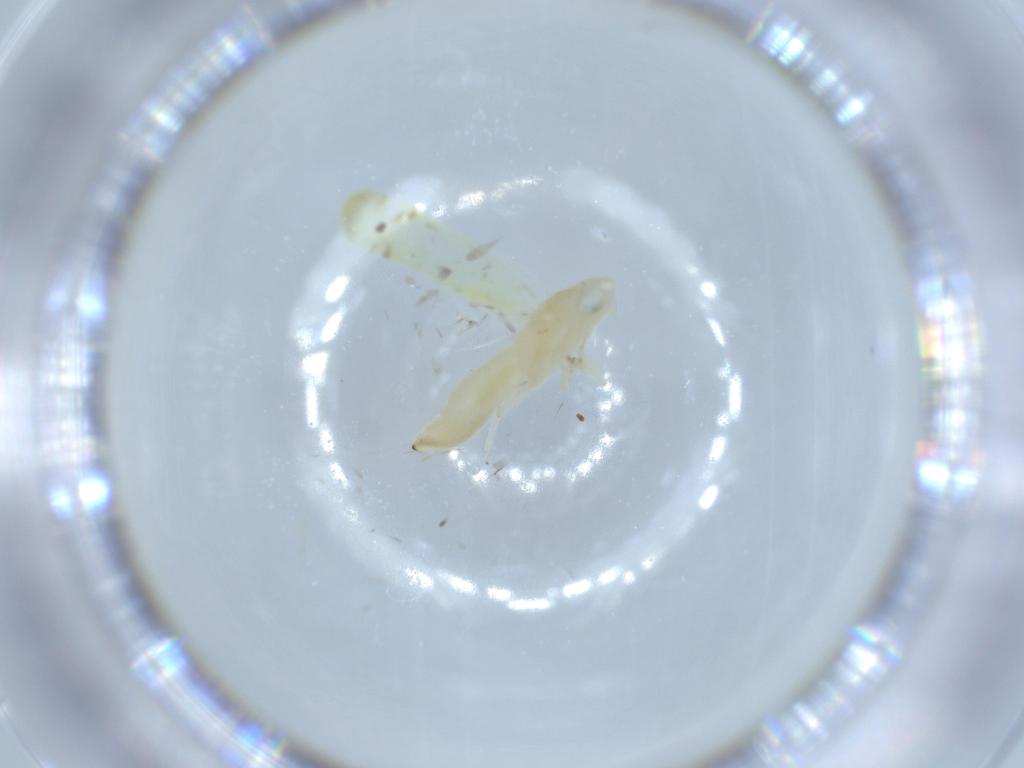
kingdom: Animalia
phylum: Arthropoda
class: Insecta
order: Hemiptera
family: Cicadellidae
